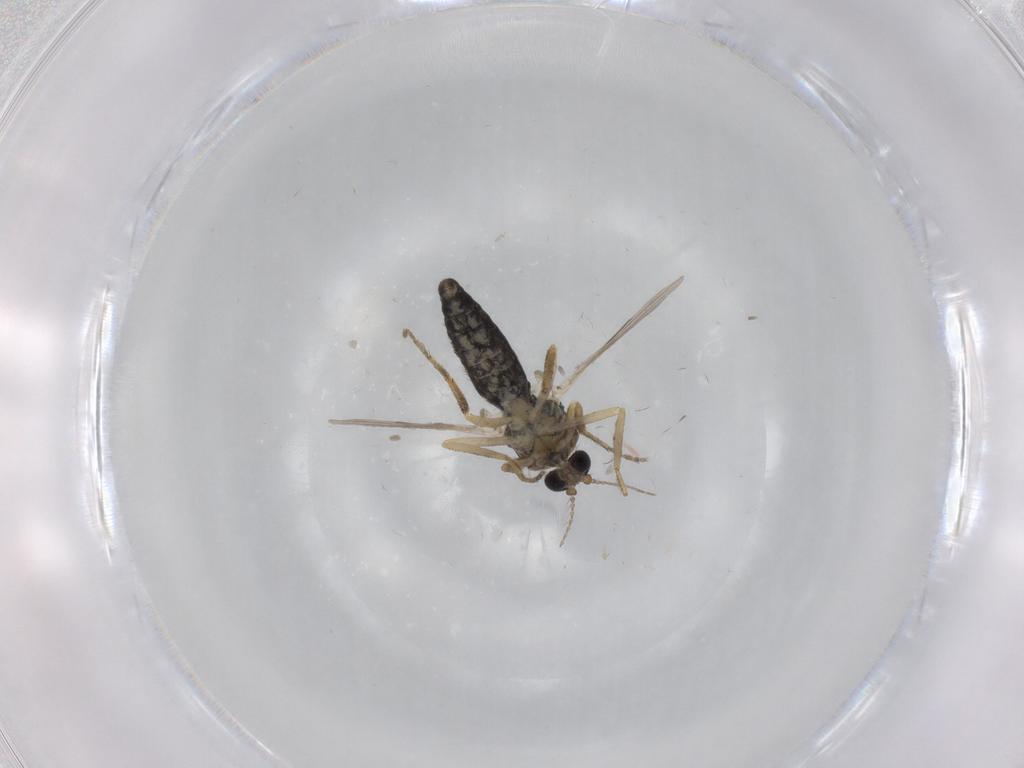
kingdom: Animalia
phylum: Arthropoda
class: Insecta
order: Diptera
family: Ceratopogonidae
